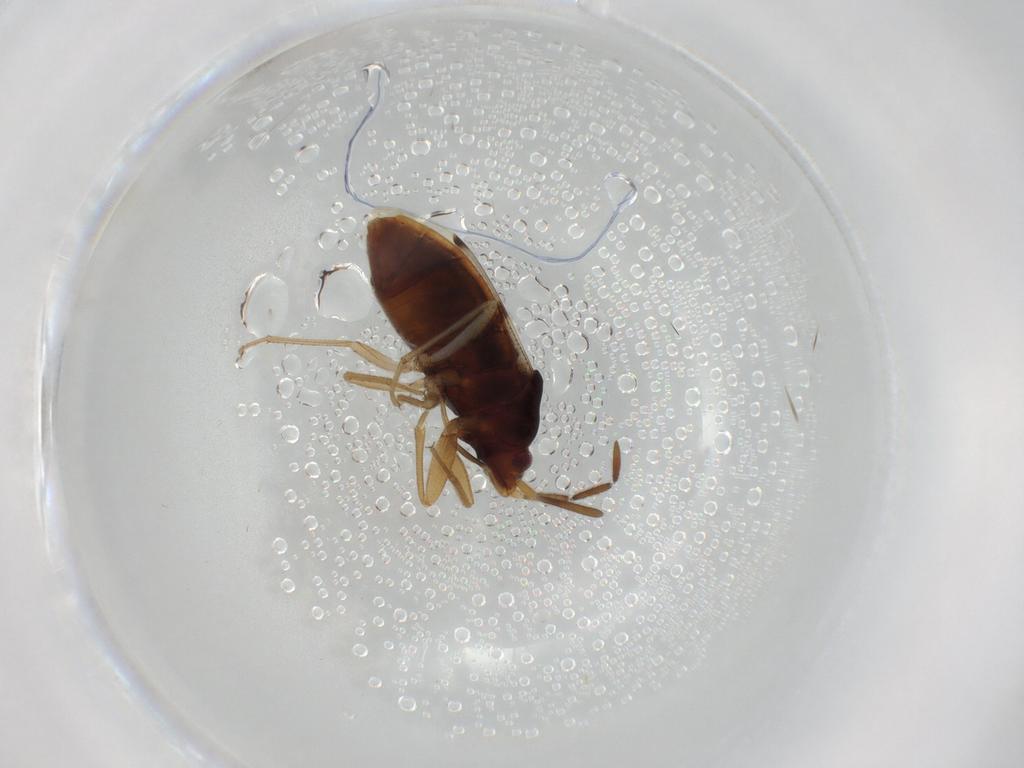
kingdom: Animalia
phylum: Arthropoda
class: Insecta
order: Hemiptera
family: Rhyparochromidae
